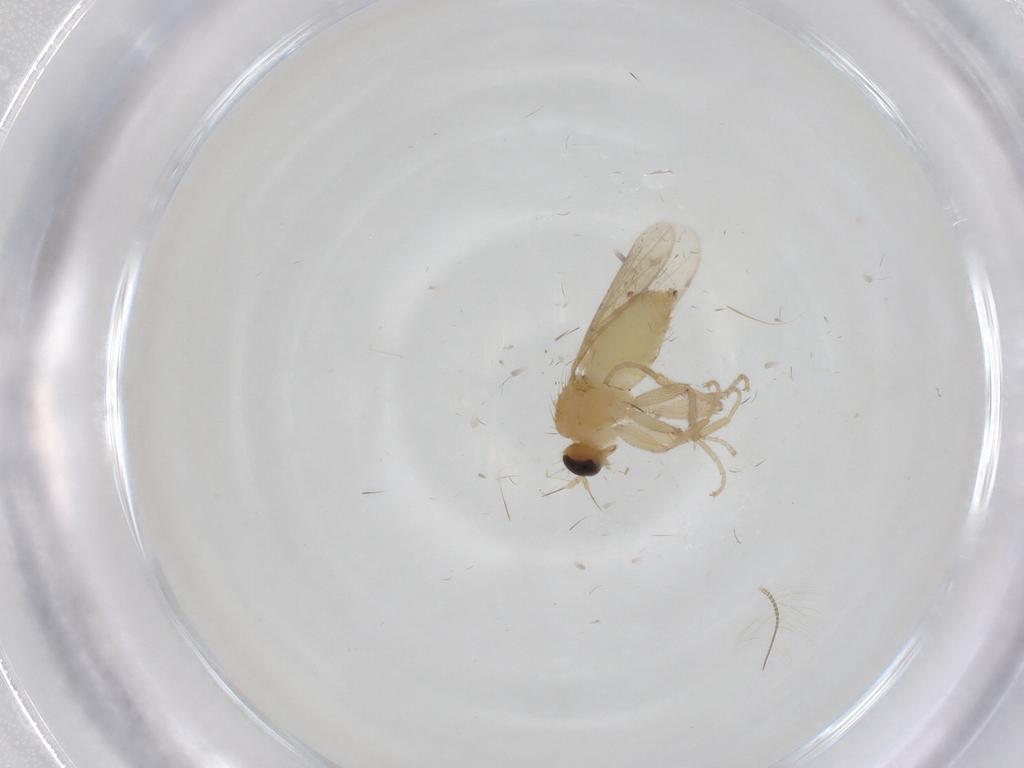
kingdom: Animalia
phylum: Arthropoda
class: Insecta
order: Diptera
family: Hybotidae
